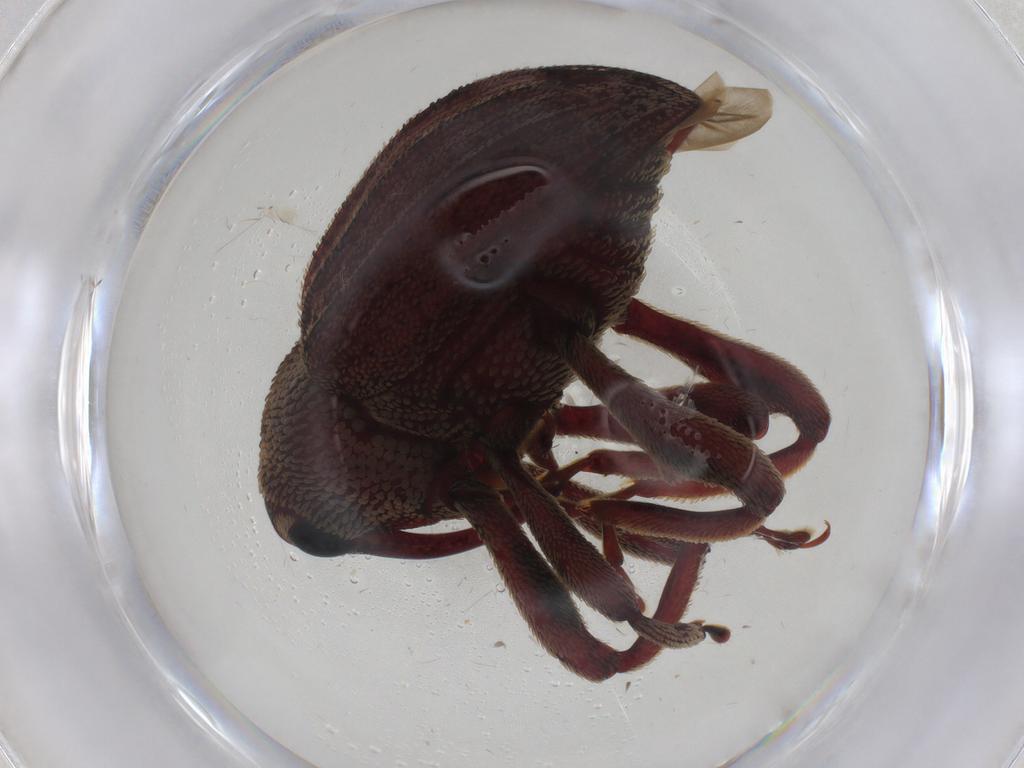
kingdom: Animalia
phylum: Arthropoda
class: Insecta
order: Coleoptera
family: Curculionidae
